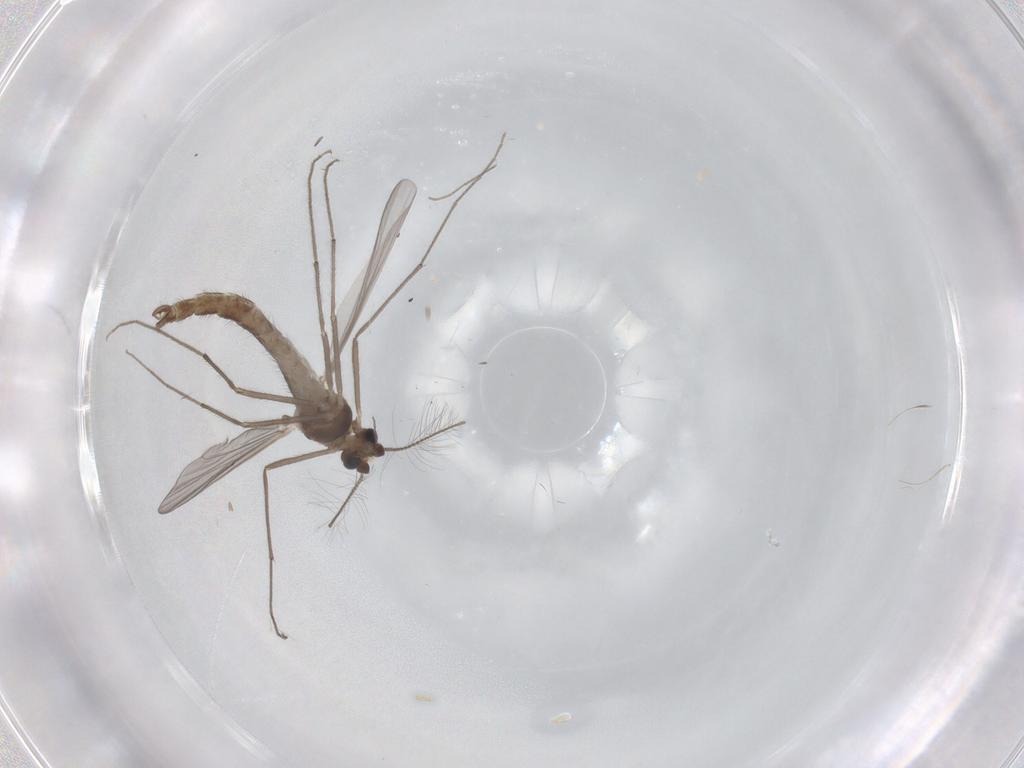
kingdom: Animalia
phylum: Arthropoda
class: Insecta
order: Diptera
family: Chironomidae
